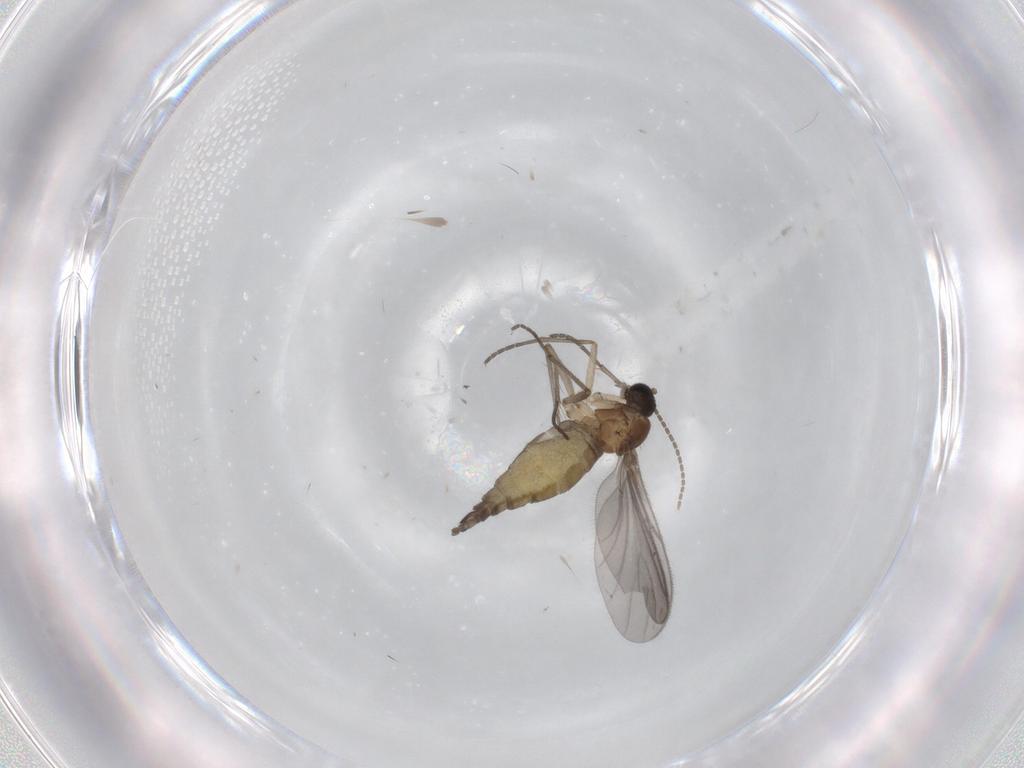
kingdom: Animalia
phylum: Arthropoda
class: Insecta
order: Diptera
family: Sciaridae
